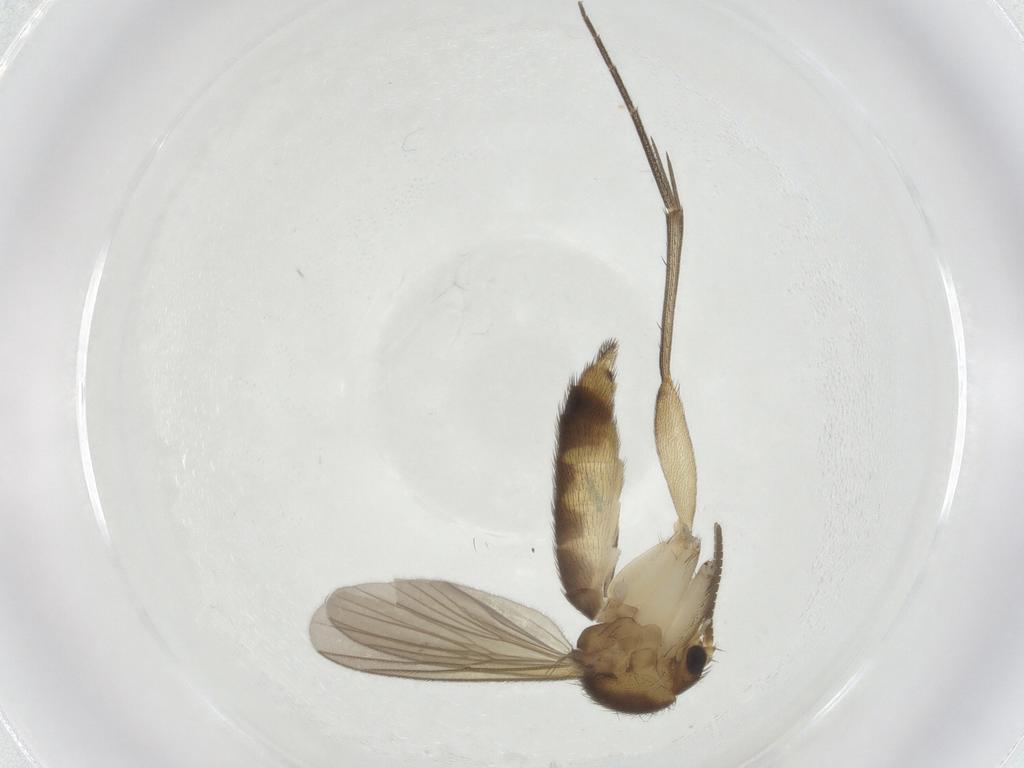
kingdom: Animalia
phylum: Arthropoda
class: Insecta
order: Diptera
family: Mycetophilidae
